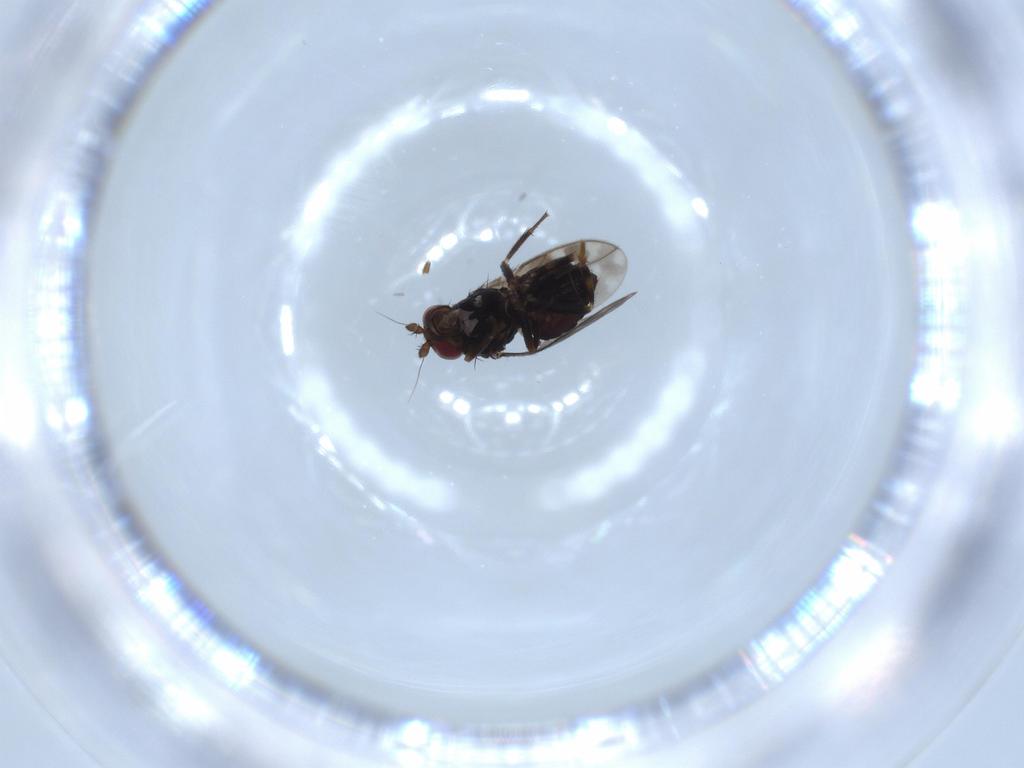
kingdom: Animalia
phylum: Arthropoda
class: Insecta
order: Diptera
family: Sphaeroceridae
